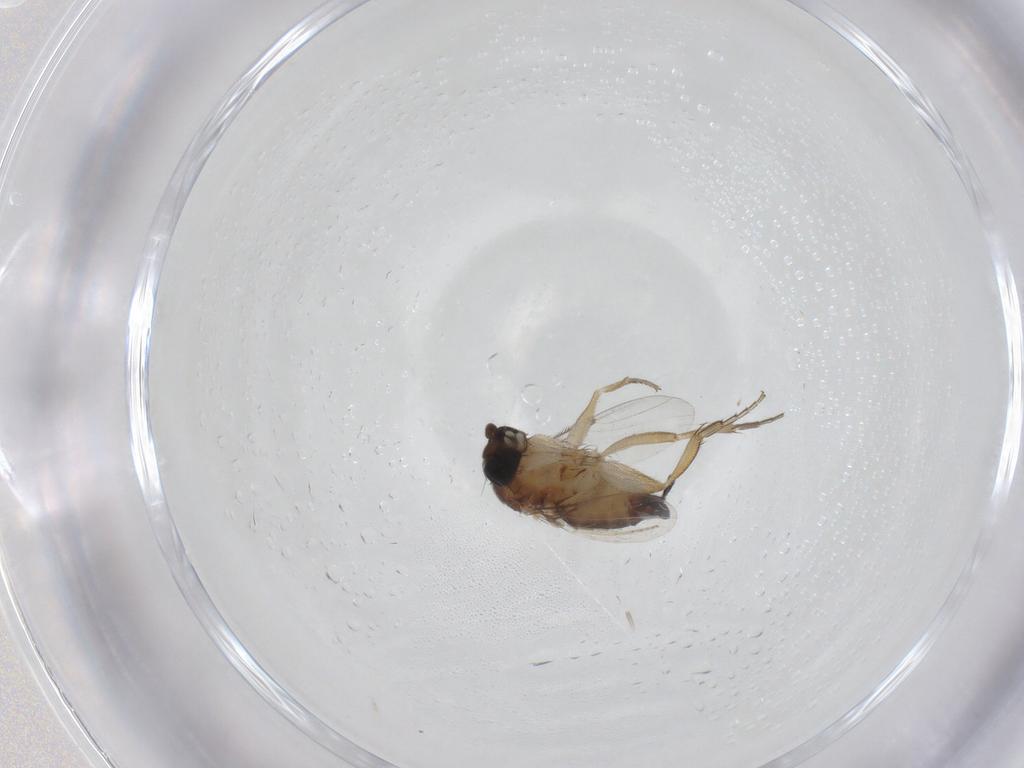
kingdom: Animalia
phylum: Arthropoda
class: Insecta
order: Diptera
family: Phoridae
